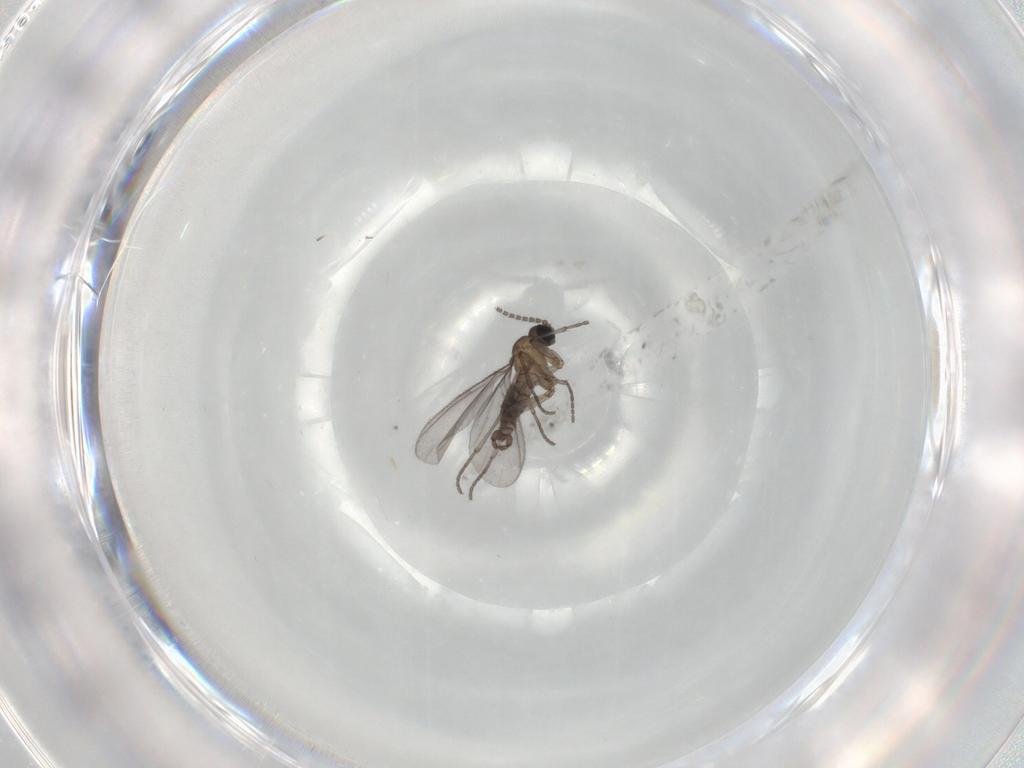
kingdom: Animalia
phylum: Arthropoda
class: Insecta
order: Diptera
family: Sciaridae
